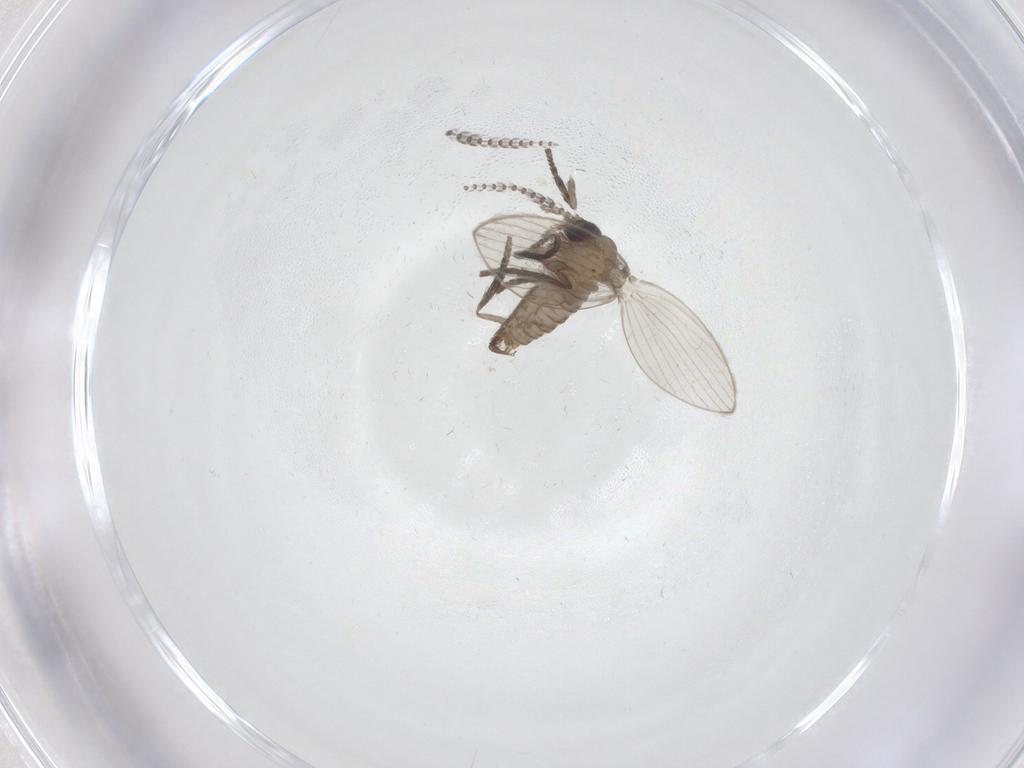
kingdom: Animalia
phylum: Arthropoda
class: Insecta
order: Diptera
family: Psychodidae
